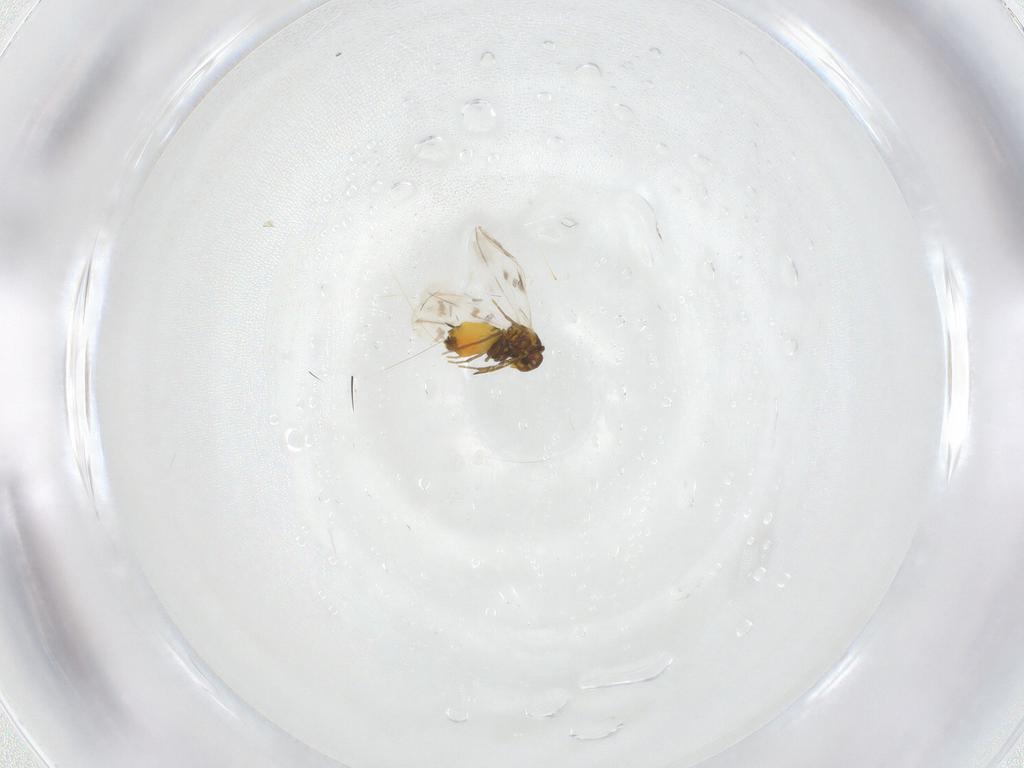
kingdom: Animalia
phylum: Arthropoda
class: Insecta
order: Hemiptera
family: Aleyrodidae
